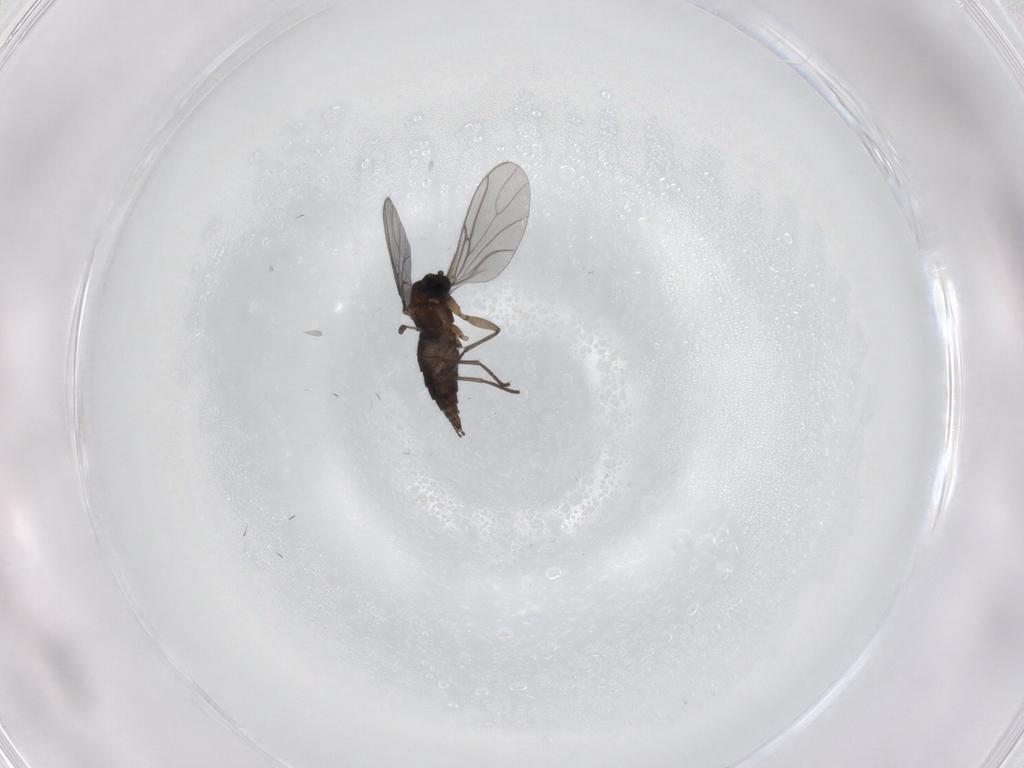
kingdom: Animalia
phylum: Arthropoda
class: Insecta
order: Diptera
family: Sciaridae
